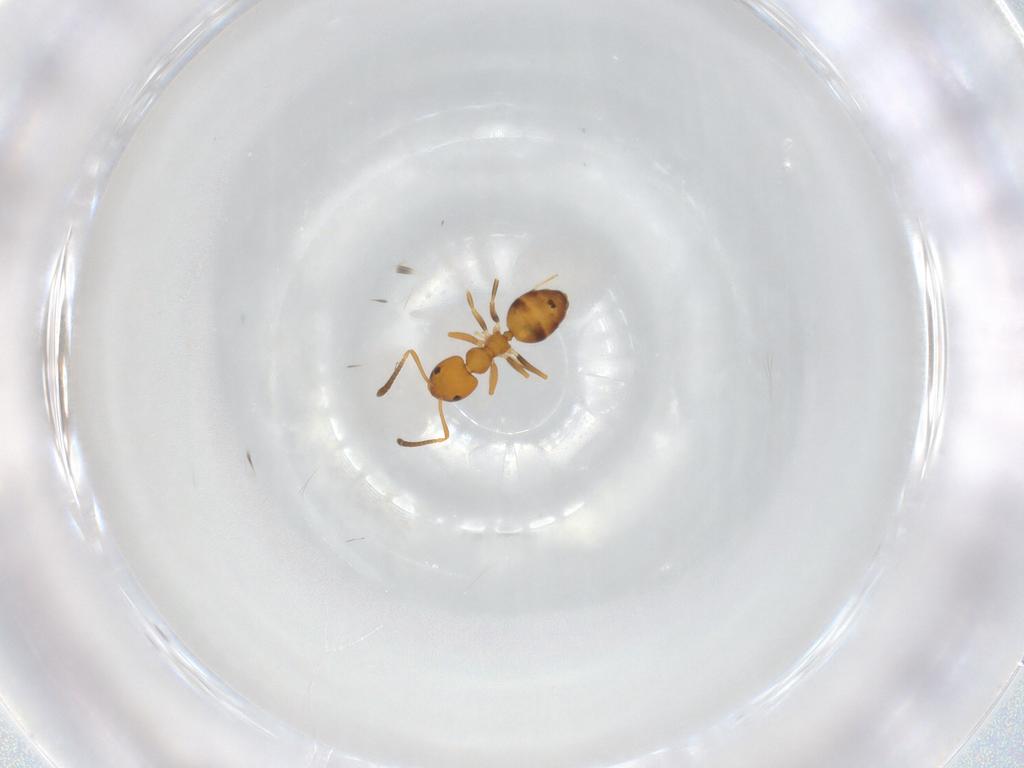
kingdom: Animalia
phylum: Arthropoda
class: Insecta
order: Hymenoptera
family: Formicidae
